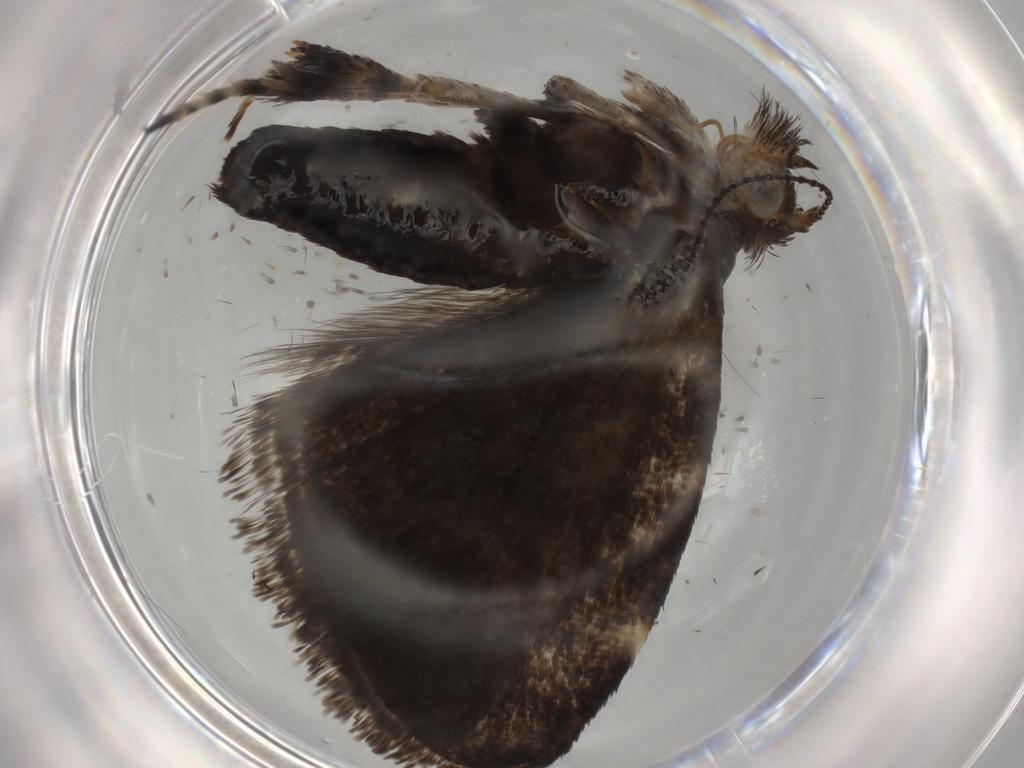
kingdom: Animalia
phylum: Arthropoda
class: Insecta
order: Lepidoptera
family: Choreutidae
